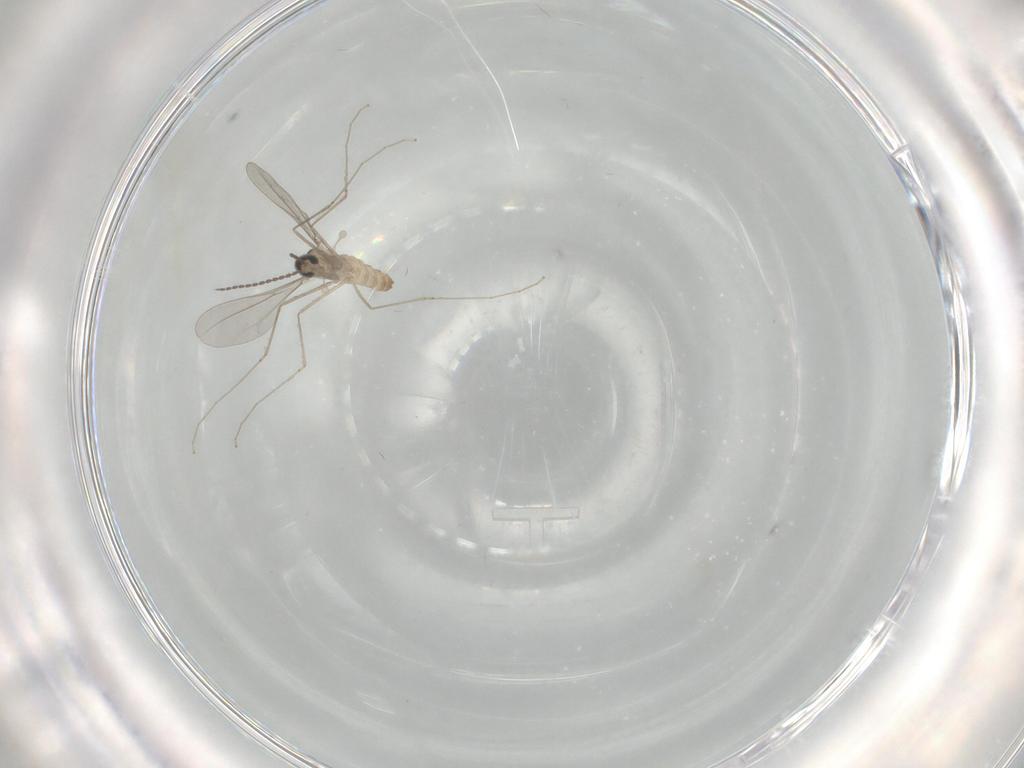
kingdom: Animalia
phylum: Arthropoda
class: Insecta
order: Diptera
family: Cecidomyiidae
